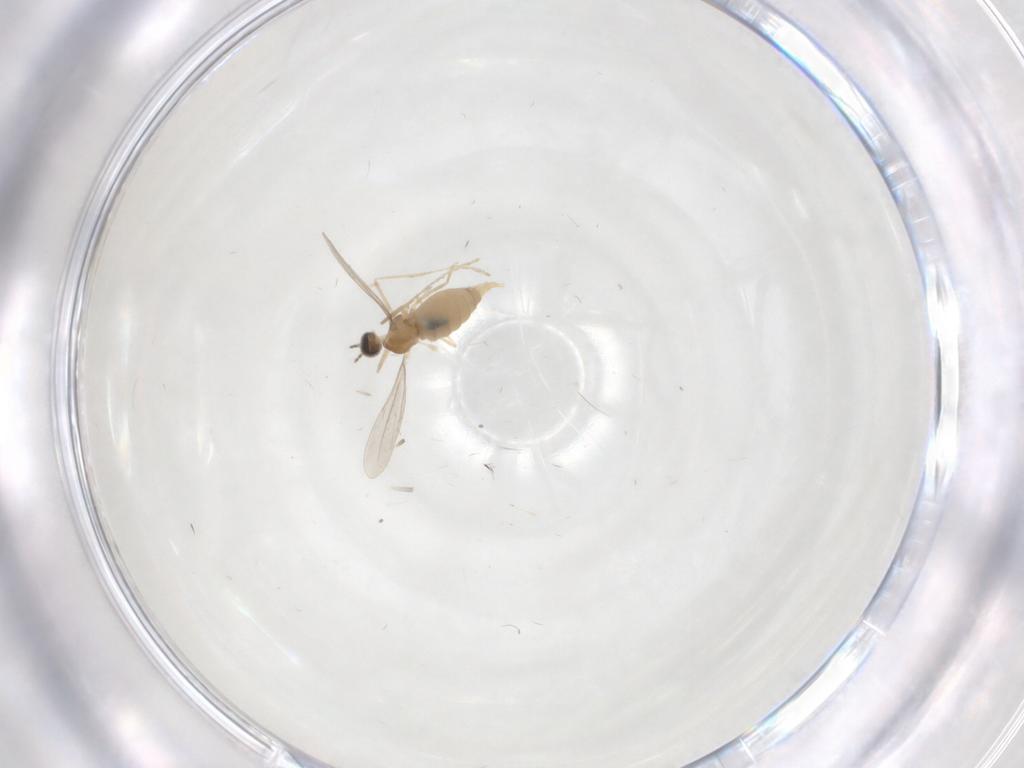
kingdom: Animalia
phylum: Arthropoda
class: Insecta
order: Diptera
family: Cecidomyiidae
